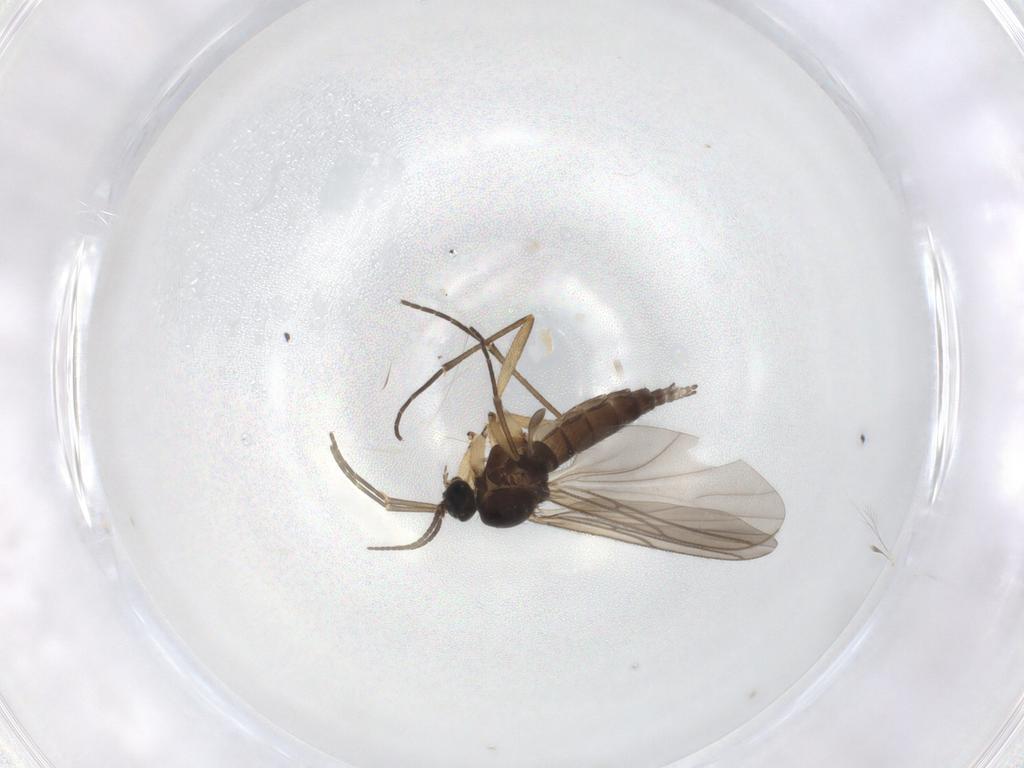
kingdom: Animalia
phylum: Arthropoda
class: Insecta
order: Diptera
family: Sciaridae
